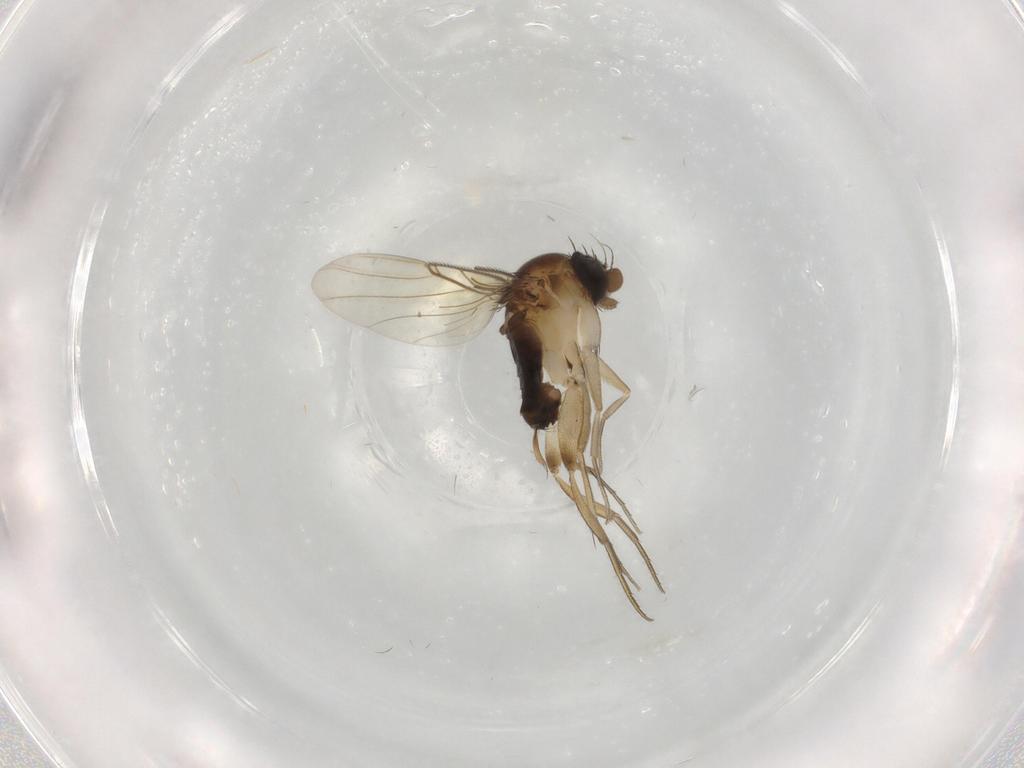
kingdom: Animalia
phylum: Arthropoda
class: Insecta
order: Diptera
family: Phoridae
